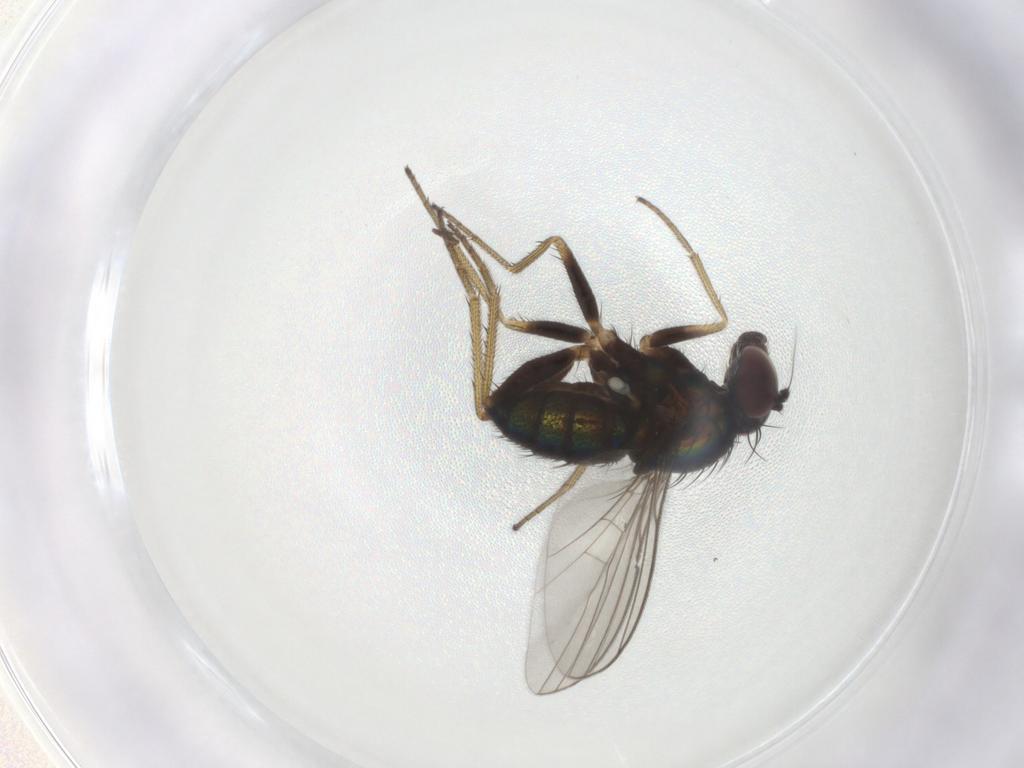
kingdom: Animalia
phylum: Arthropoda
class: Insecta
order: Diptera
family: Dolichopodidae
